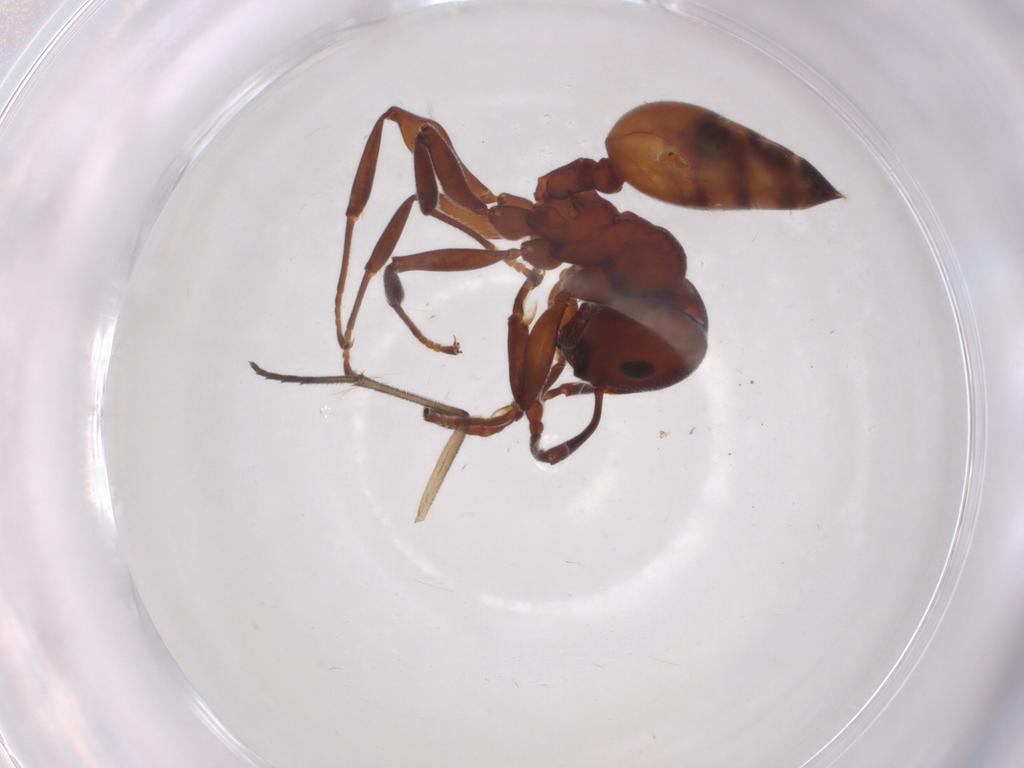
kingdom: Animalia
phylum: Arthropoda
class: Insecta
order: Hymenoptera
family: Formicidae
